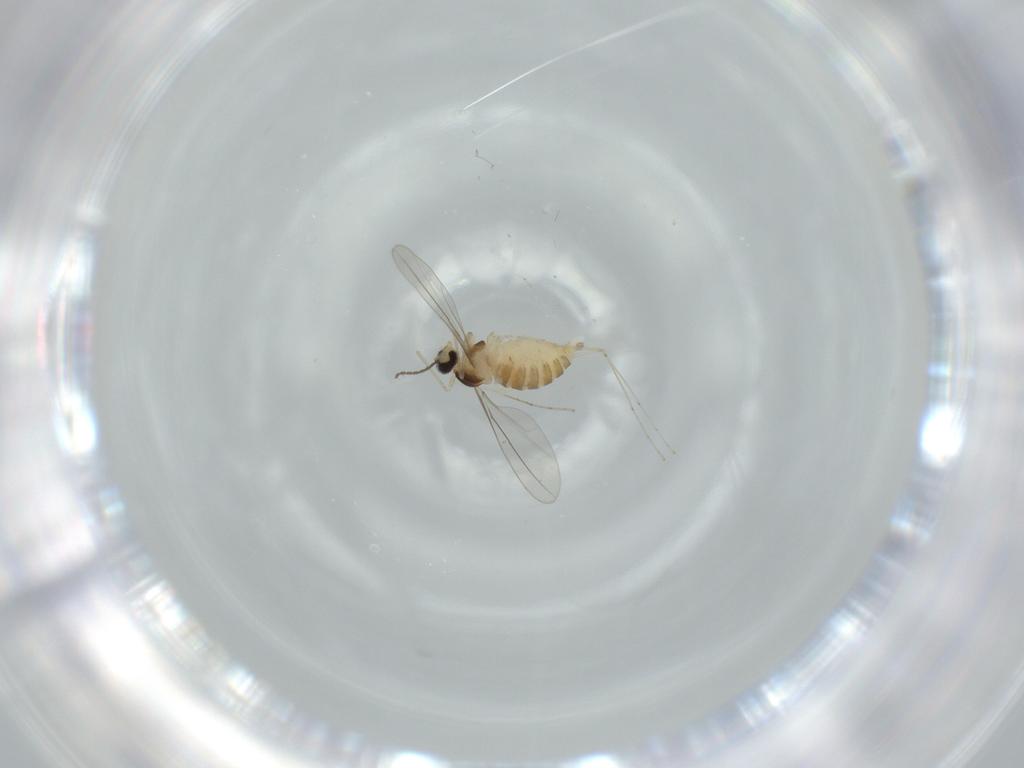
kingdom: Animalia
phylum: Arthropoda
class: Insecta
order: Diptera
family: Cecidomyiidae
